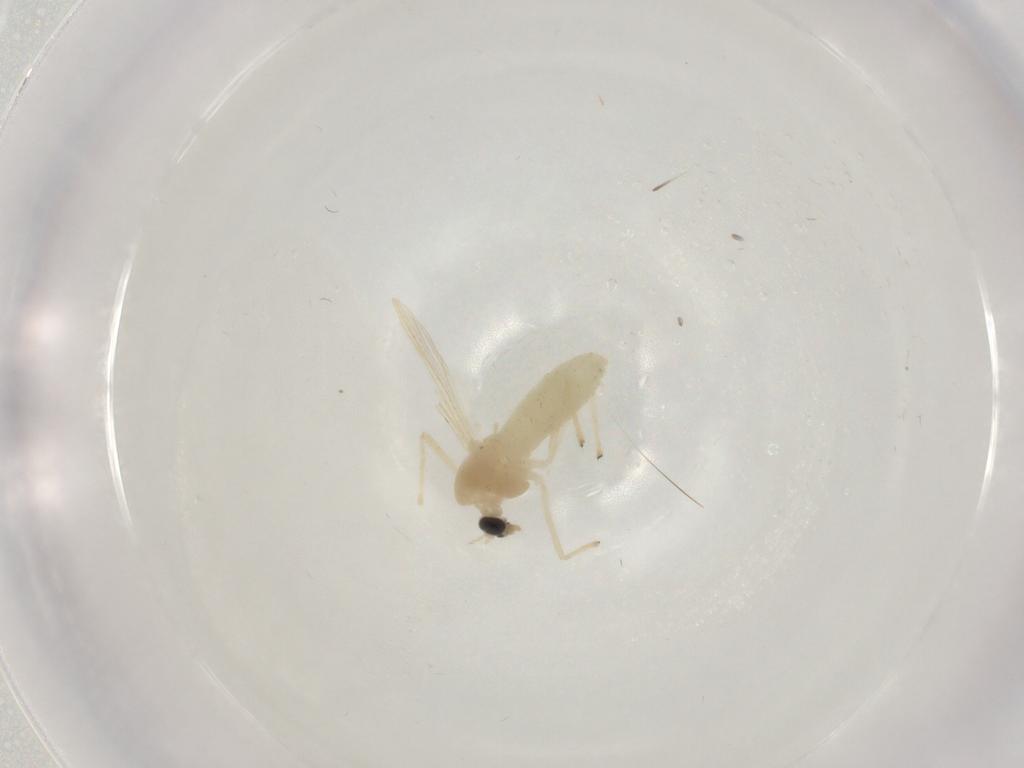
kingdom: Animalia
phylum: Arthropoda
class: Insecta
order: Diptera
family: Chironomidae
